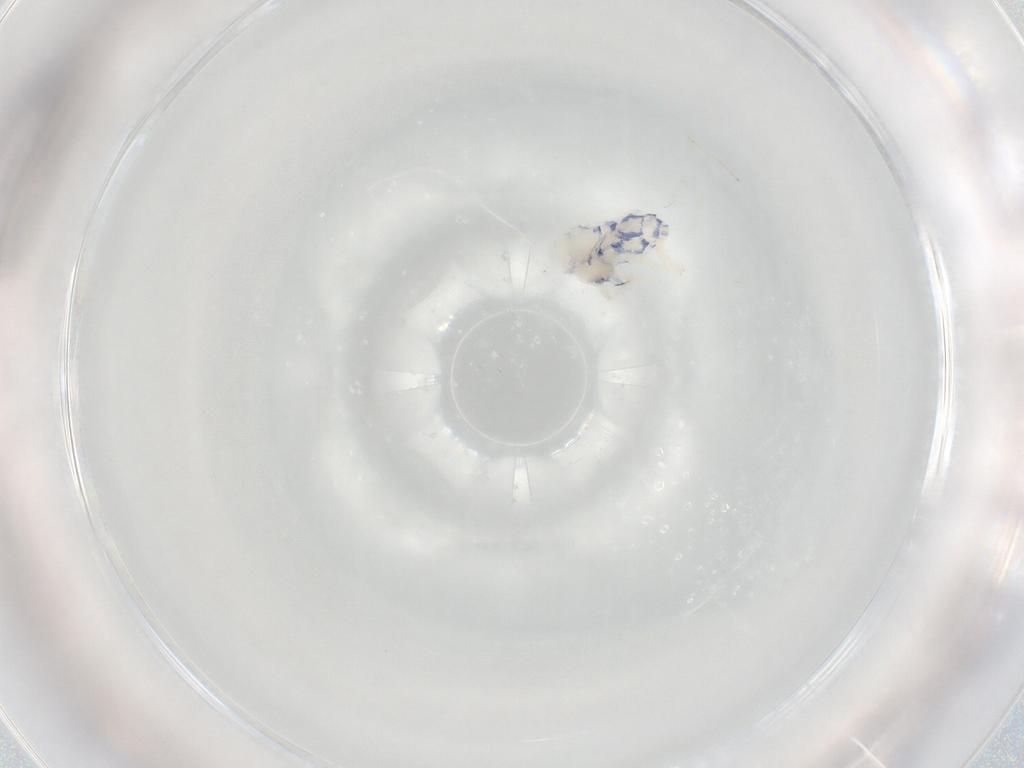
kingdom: Animalia
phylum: Arthropoda
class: Collembola
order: Entomobryomorpha
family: Entomobryidae
